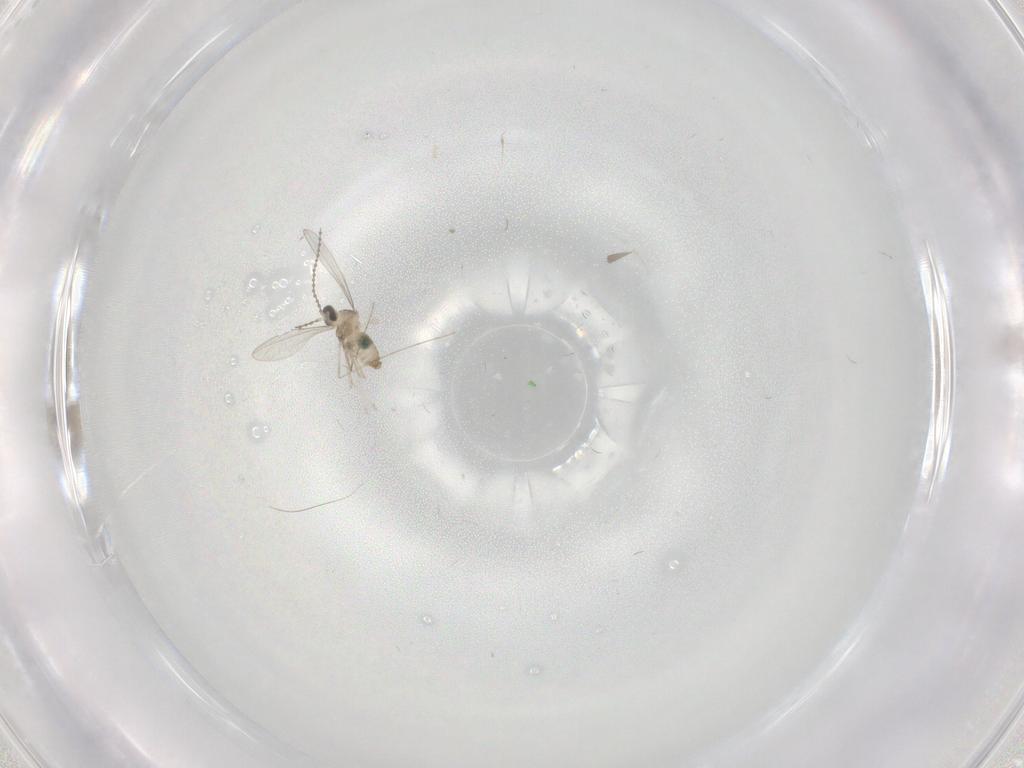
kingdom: Animalia
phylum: Arthropoda
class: Insecta
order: Diptera
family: Cecidomyiidae
